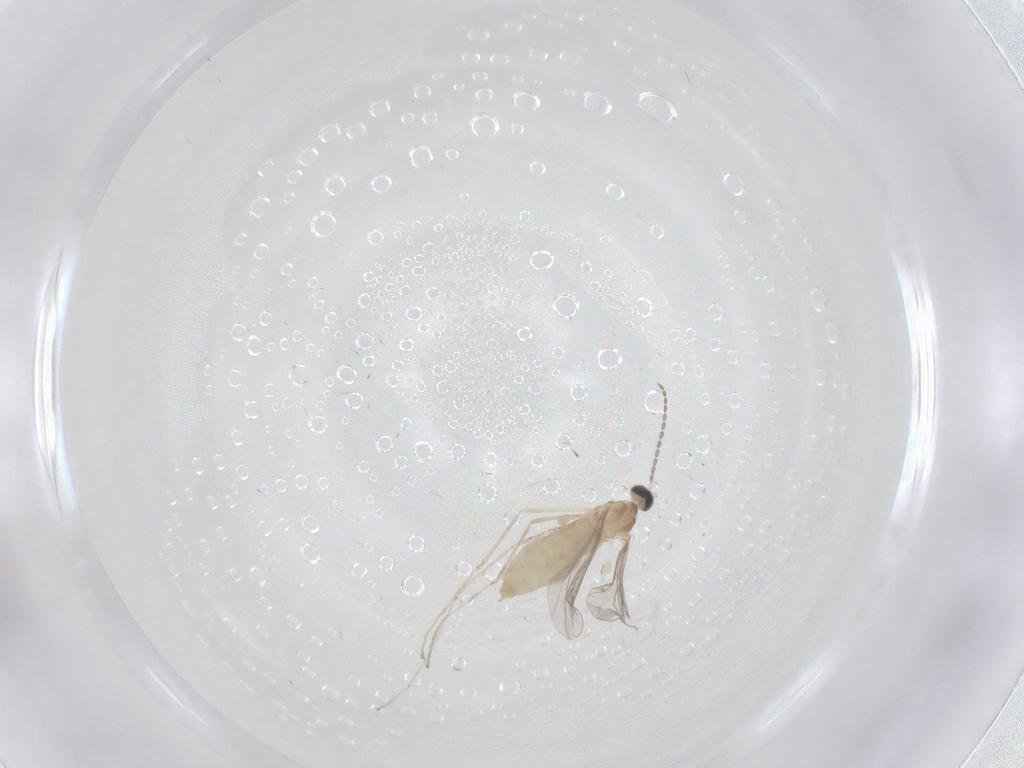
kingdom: Animalia
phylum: Arthropoda
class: Insecta
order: Diptera
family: Cecidomyiidae
